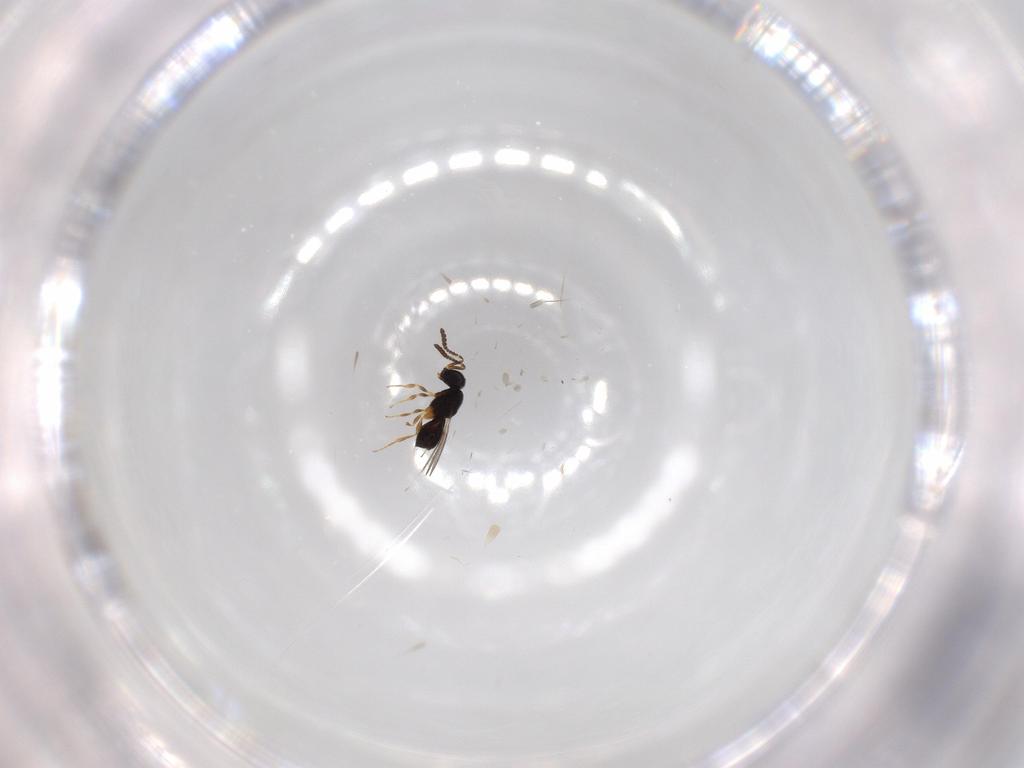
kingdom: Animalia
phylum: Arthropoda
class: Insecta
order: Hymenoptera
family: Scelionidae
